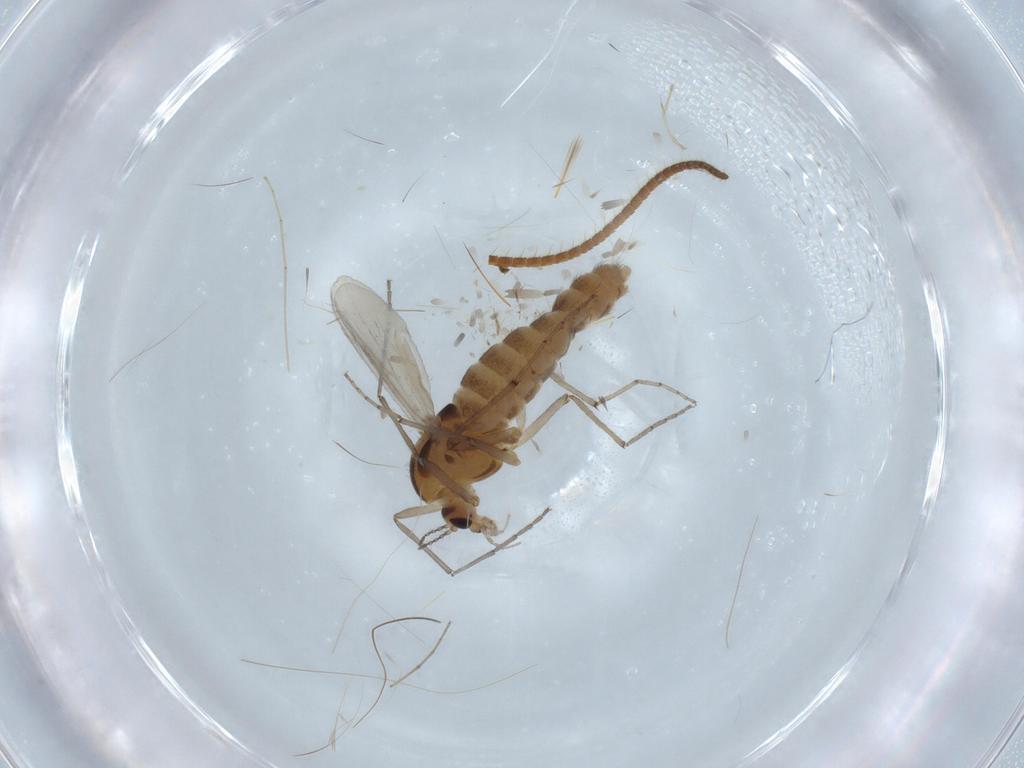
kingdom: Animalia
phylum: Arthropoda
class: Insecta
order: Diptera
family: Chironomidae
